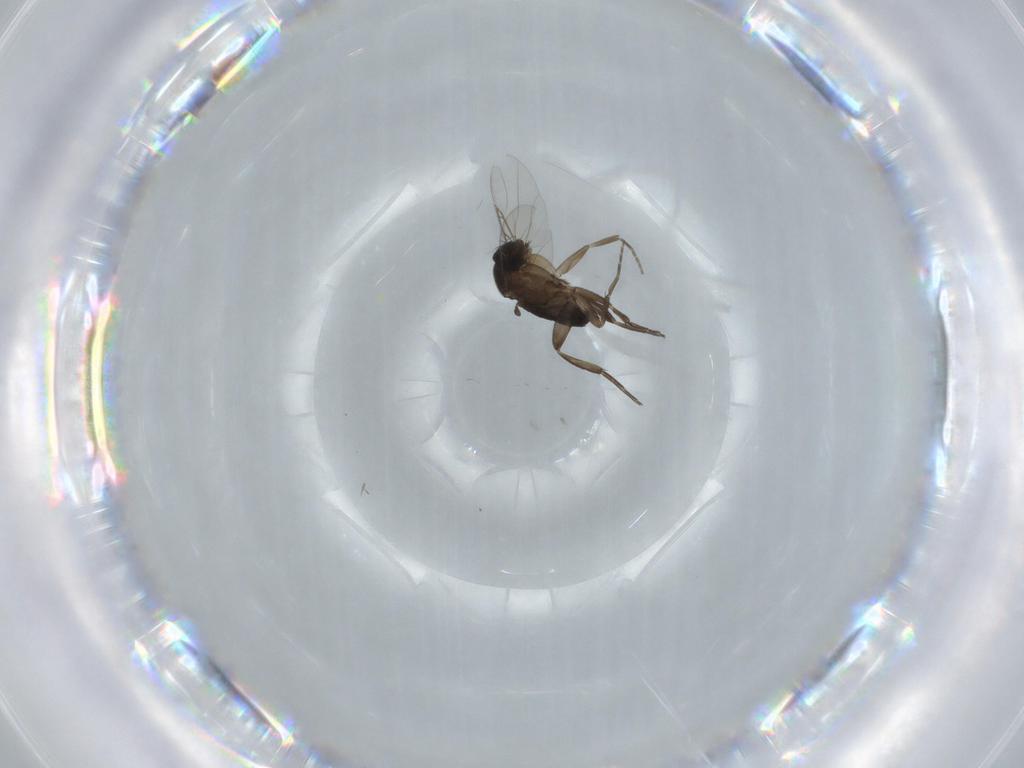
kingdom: Animalia
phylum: Arthropoda
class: Insecta
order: Diptera
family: Phoridae
